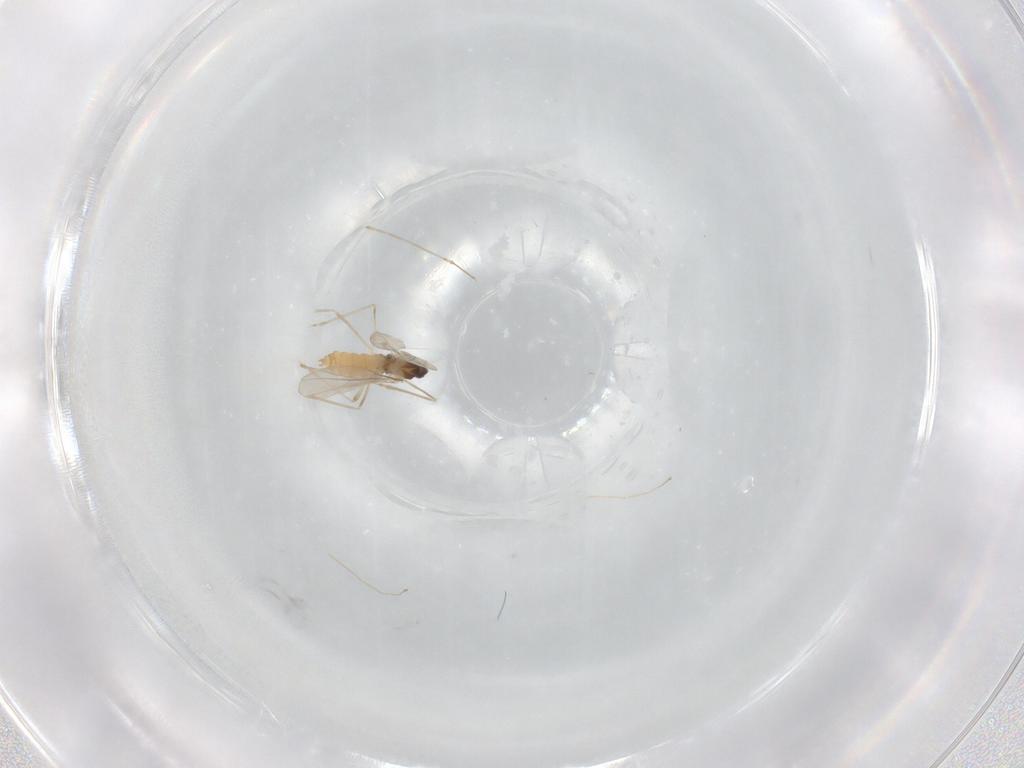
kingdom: Animalia
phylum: Arthropoda
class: Insecta
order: Diptera
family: Cecidomyiidae
